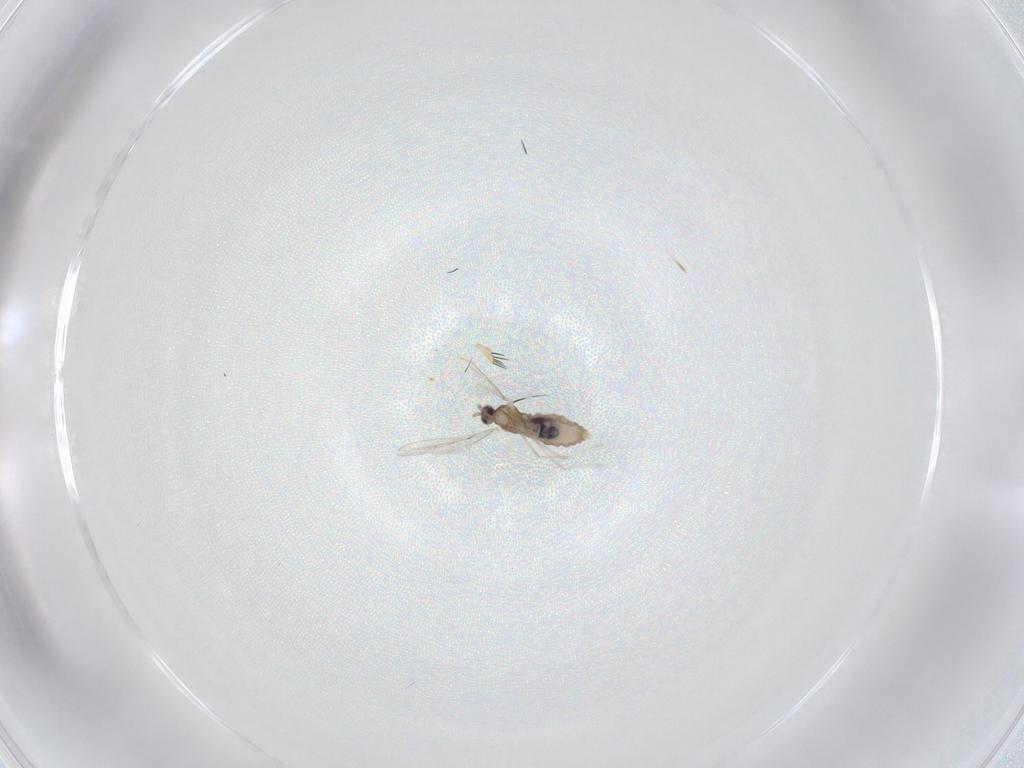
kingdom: Animalia
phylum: Arthropoda
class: Insecta
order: Diptera
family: Cecidomyiidae
